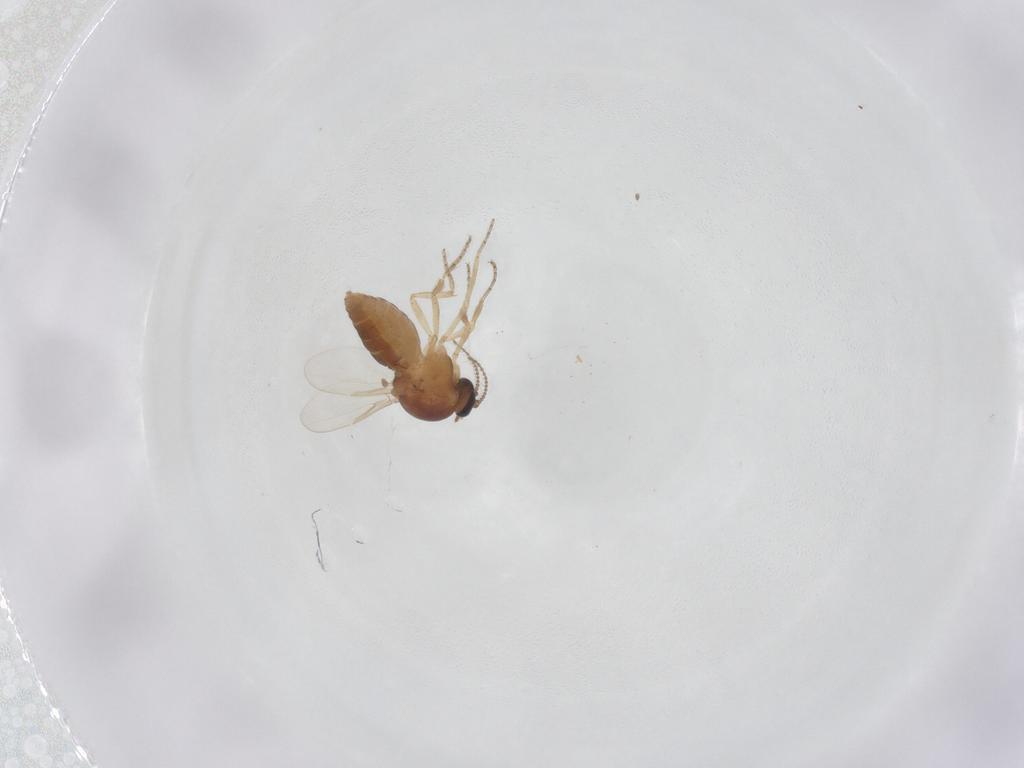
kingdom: Animalia
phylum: Arthropoda
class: Insecta
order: Diptera
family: Ceratopogonidae
